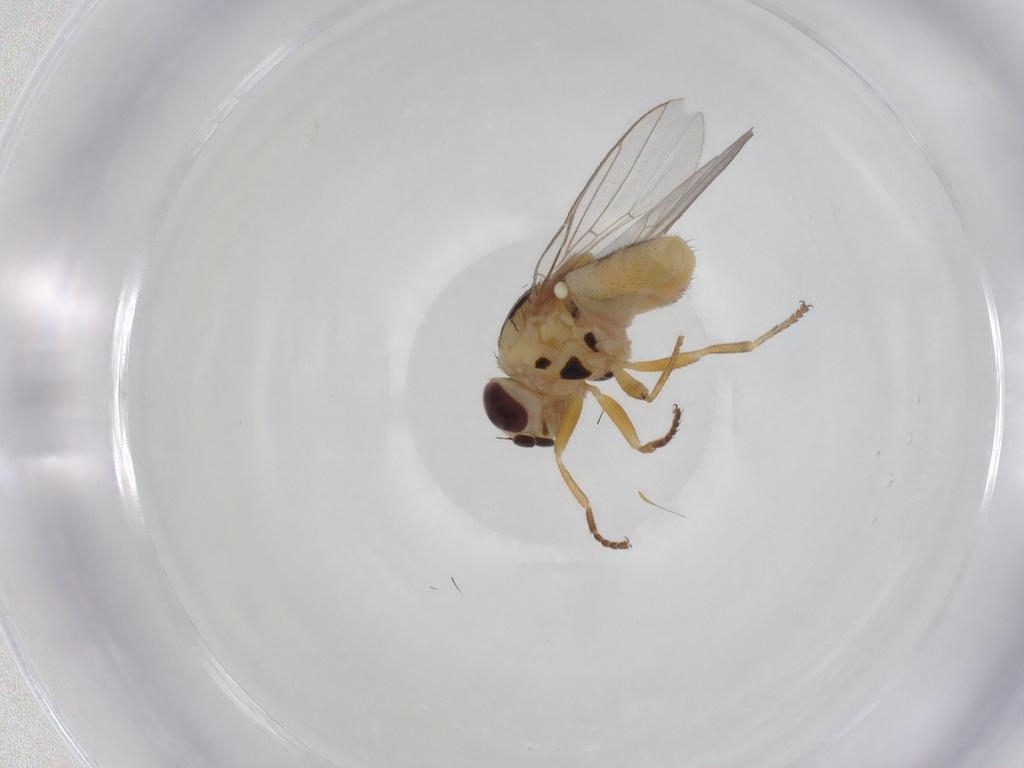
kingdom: Animalia
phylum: Arthropoda
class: Insecta
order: Diptera
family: Chloropidae
